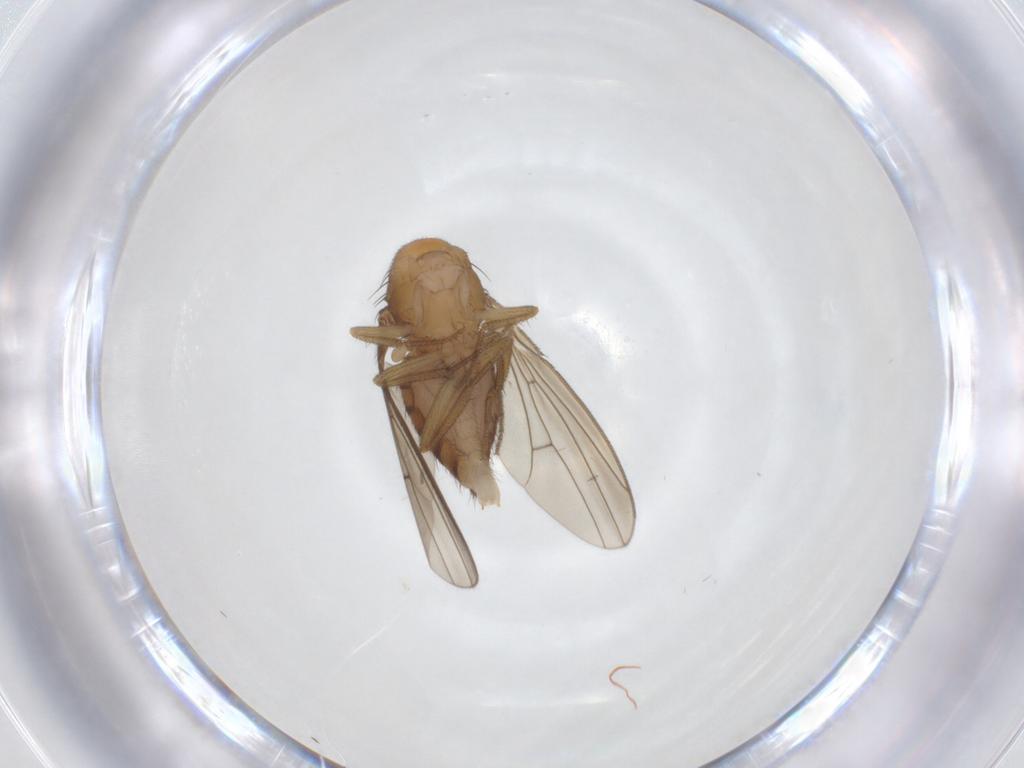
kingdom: Animalia
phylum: Arthropoda
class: Insecta
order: Diptera
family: Drosophilidae
